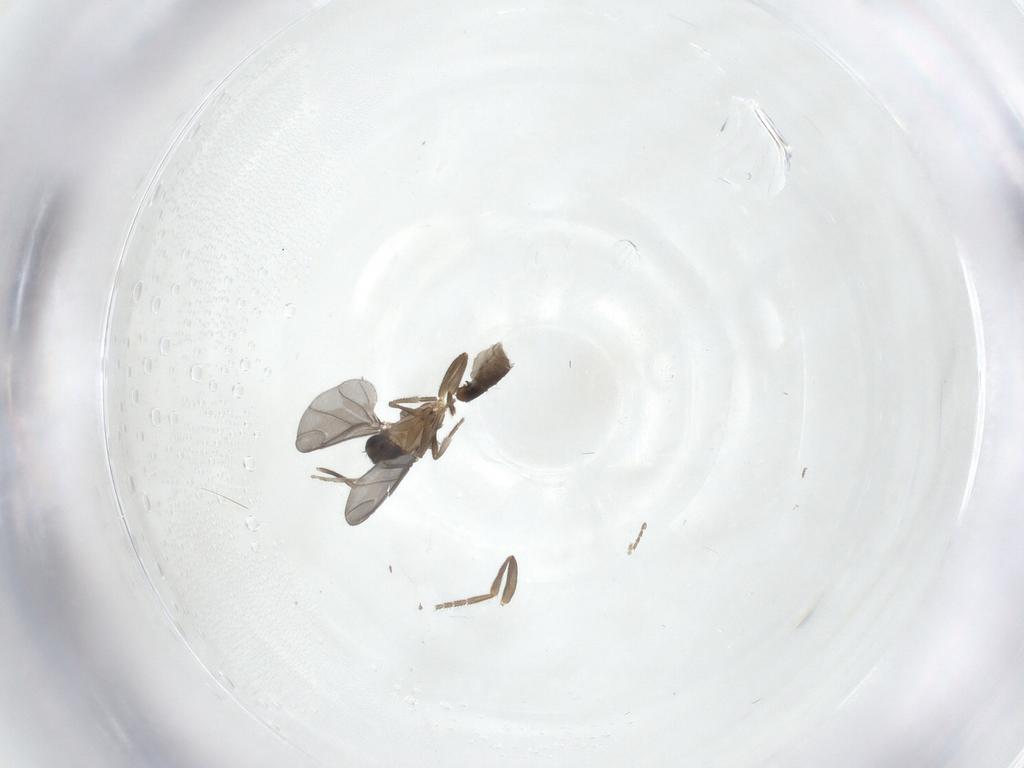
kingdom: Animalia
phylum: Arthropoda
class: Insecta
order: Diptera
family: Phoridae
